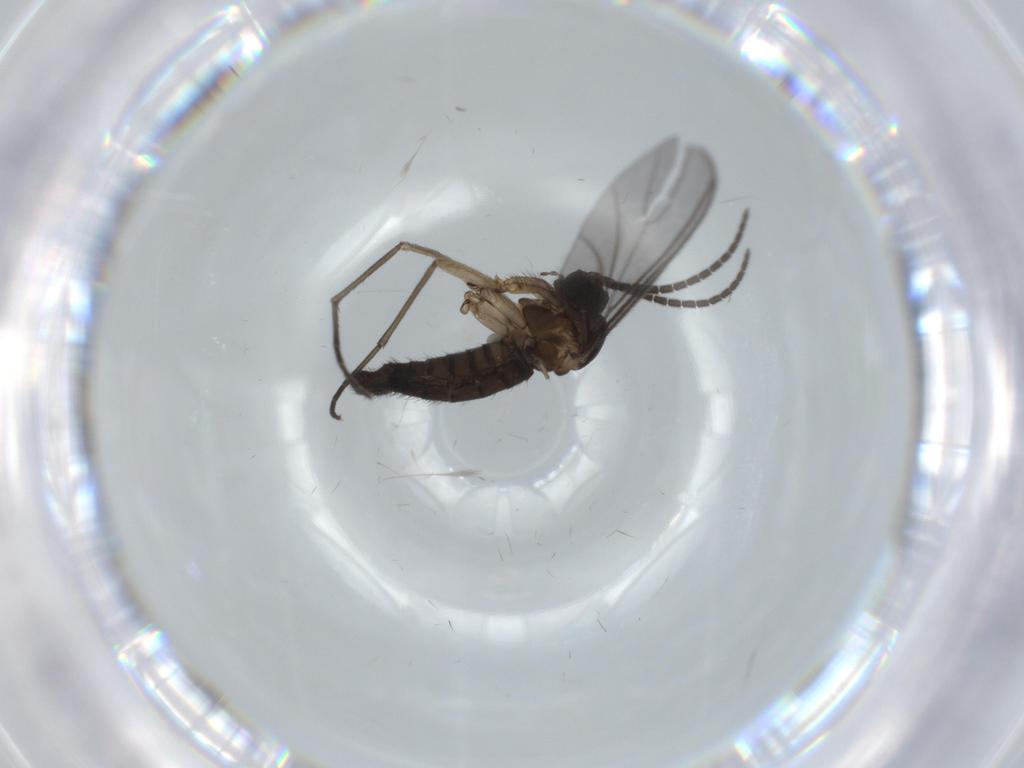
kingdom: Animalia
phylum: Arthropoda
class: Insecta
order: Diptera
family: Sciaridae
